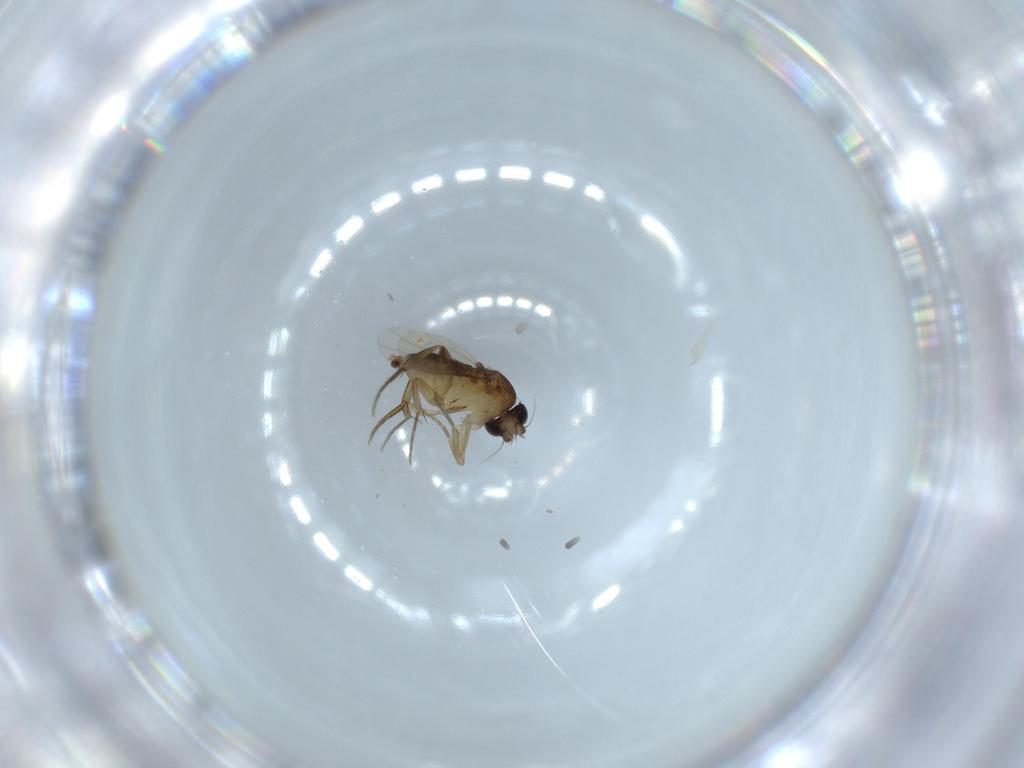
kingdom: Animalia
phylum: Arthropoda
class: Insecta
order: Diptera
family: Phoridae
